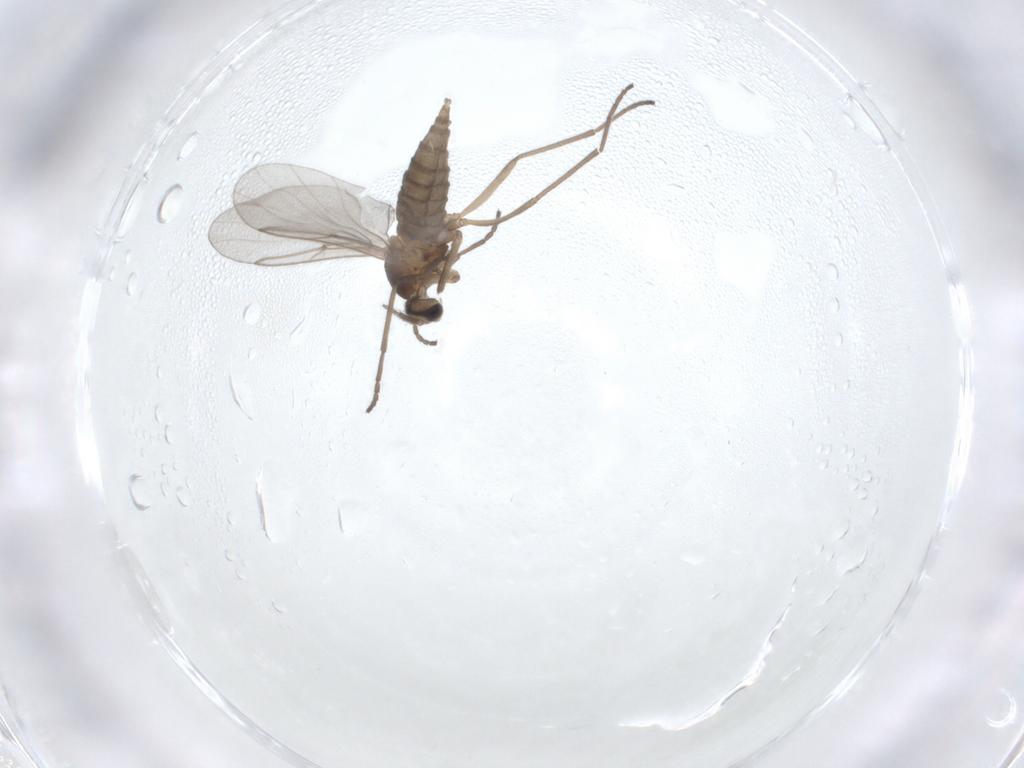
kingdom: Animalia
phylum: Arthropoda
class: Insecta
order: Diptera
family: Cecidomyiidae
